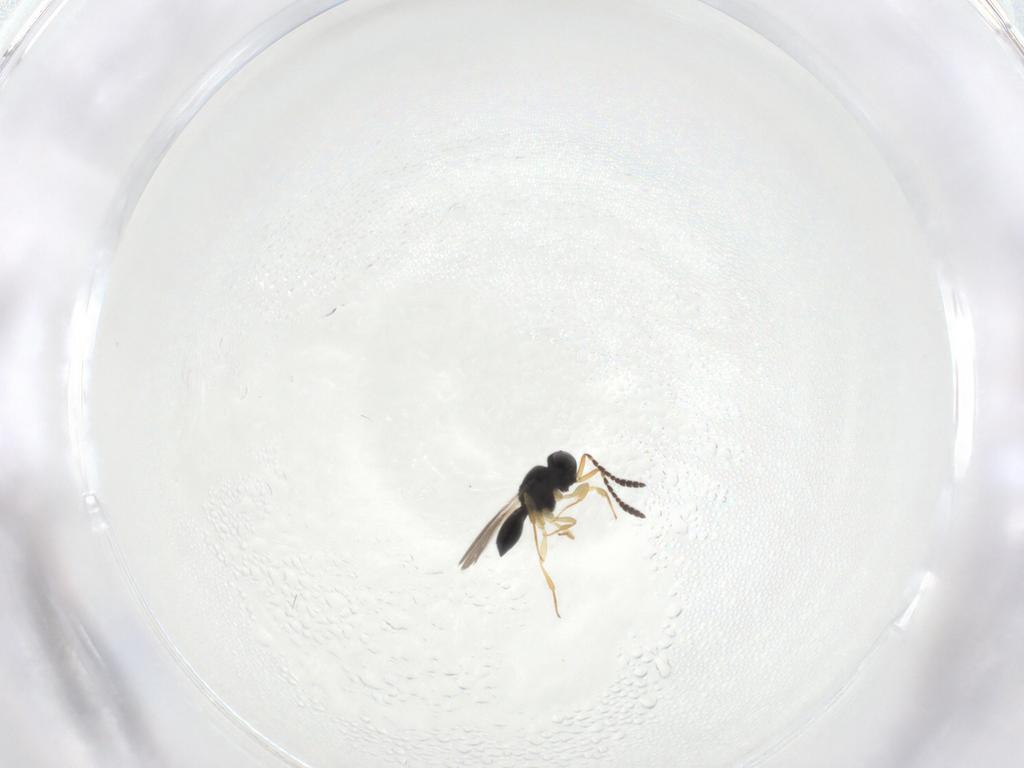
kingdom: Animalia
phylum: Arthropoda
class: Insecta
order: Hymenoptera
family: Scelionidae
